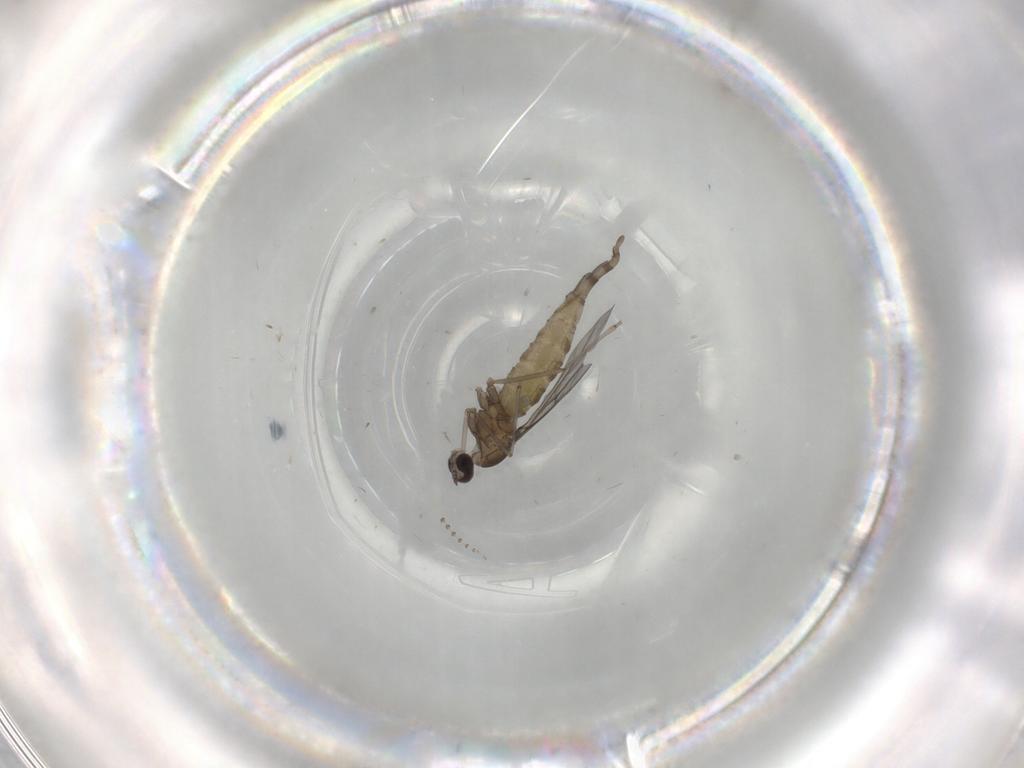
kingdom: Animalia
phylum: Arthropoda
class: Insecta
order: Diptera
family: Psychodidae
